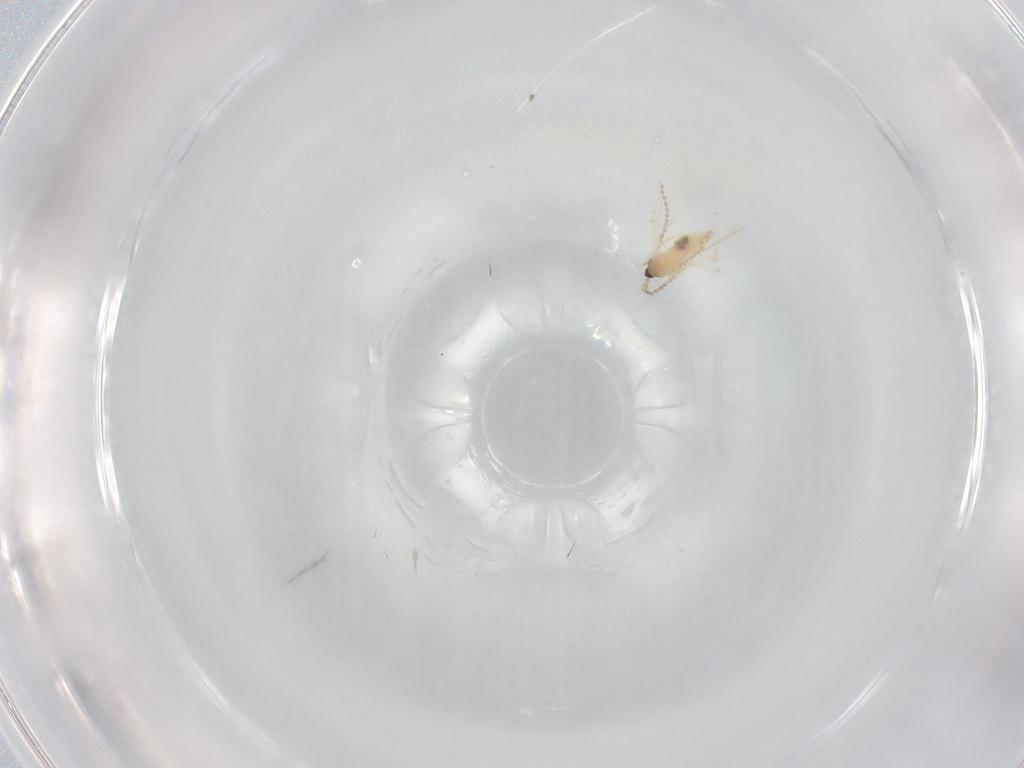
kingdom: Animalia
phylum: Arthropoda
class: Insecta
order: Diptera
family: Cecidomyiidae
